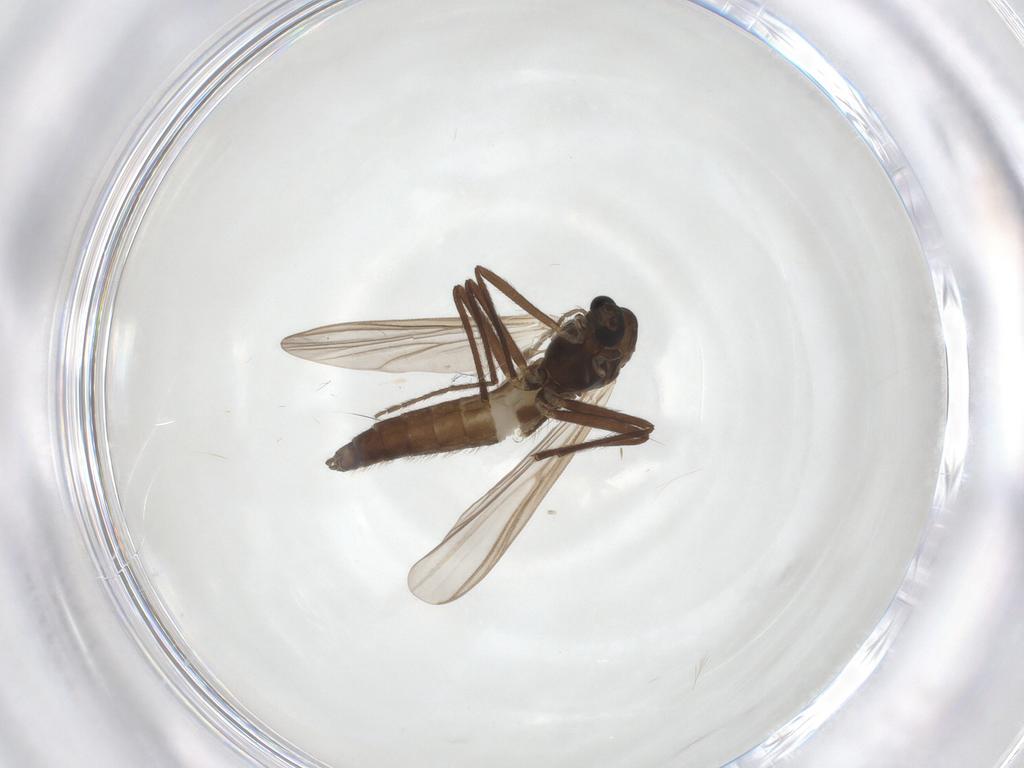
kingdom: Animalia
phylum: Arthropoda
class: Insecta
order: Diptera
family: Chironomidae
